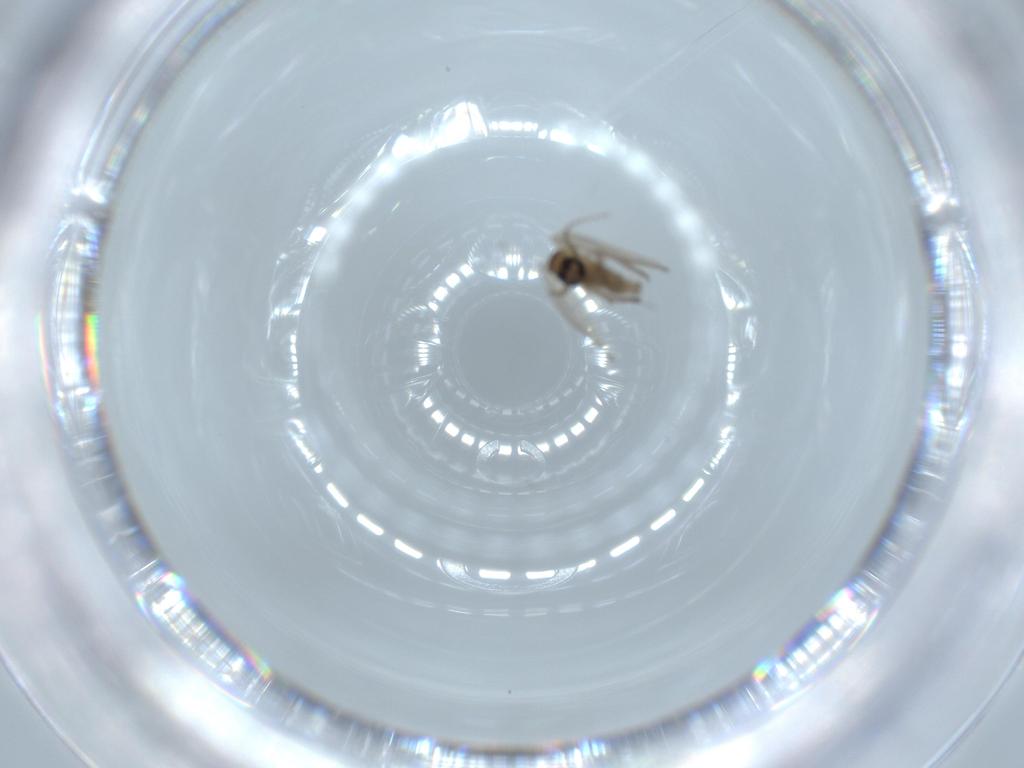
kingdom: Animalia
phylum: Arthropoda
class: Insecta
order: Diptera
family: Psychodidae
